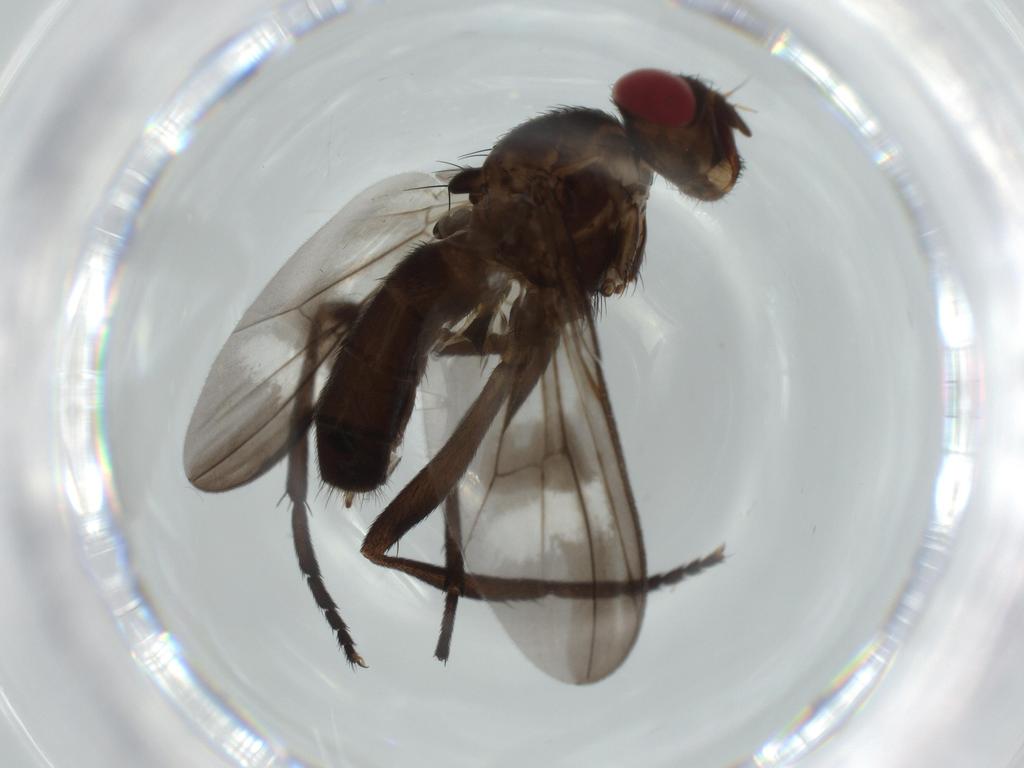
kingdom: Animalia
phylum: Arthropoda
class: Insecta
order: Diptera
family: Calliphoridae
